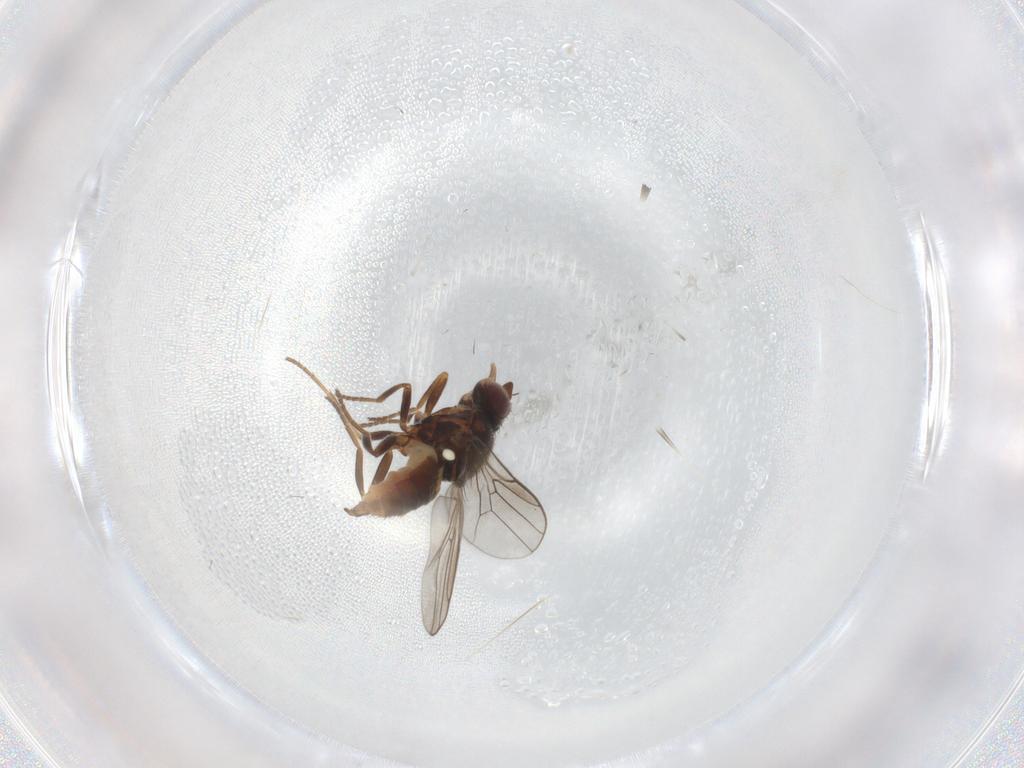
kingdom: Animalia
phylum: Arthropoda
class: Insecta
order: Diptera
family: Chloropidae
